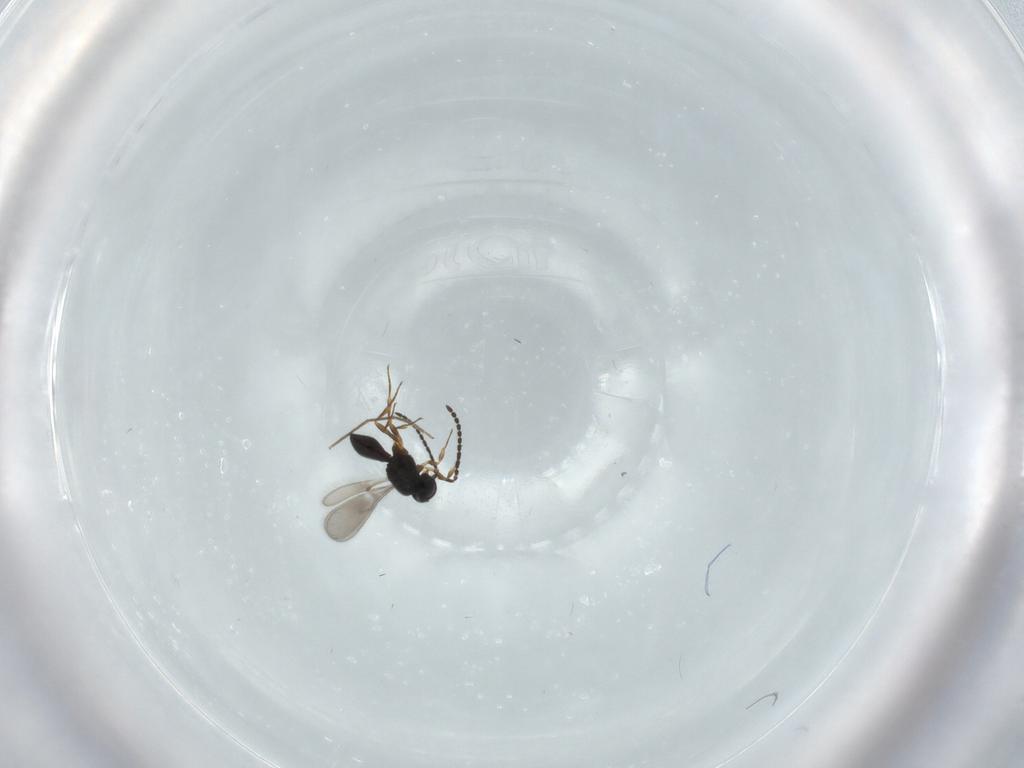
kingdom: Animalia
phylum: Arthropoda
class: Insecta
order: Hymenoptera
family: Scelionidae
